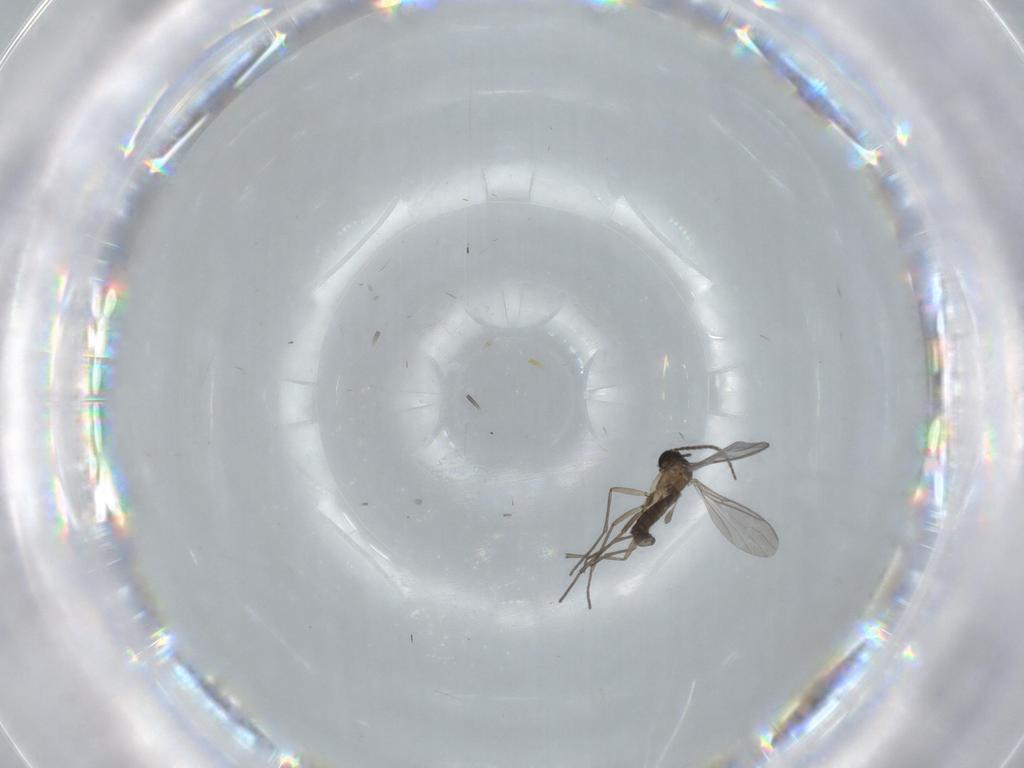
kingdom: Animalia
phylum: Arthropoda
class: Insecta
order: Diptera
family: Sciaridae
